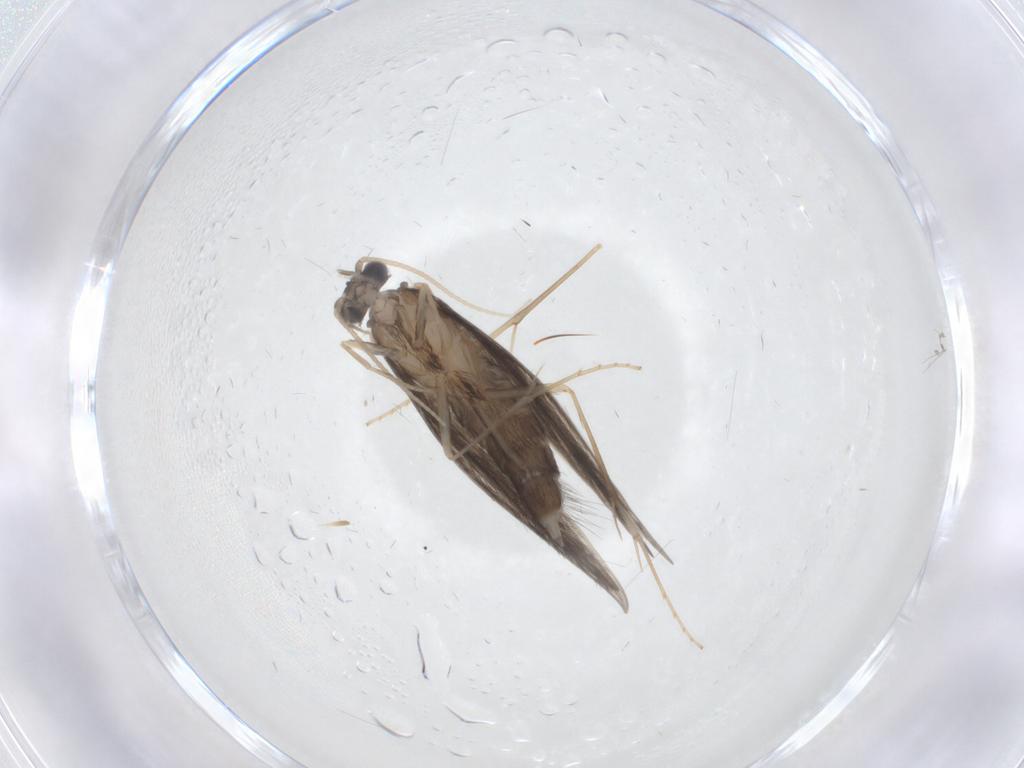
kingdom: Animalia
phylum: Arthropoda
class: Insecta
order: Trichoptera
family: Hydroptilidae
